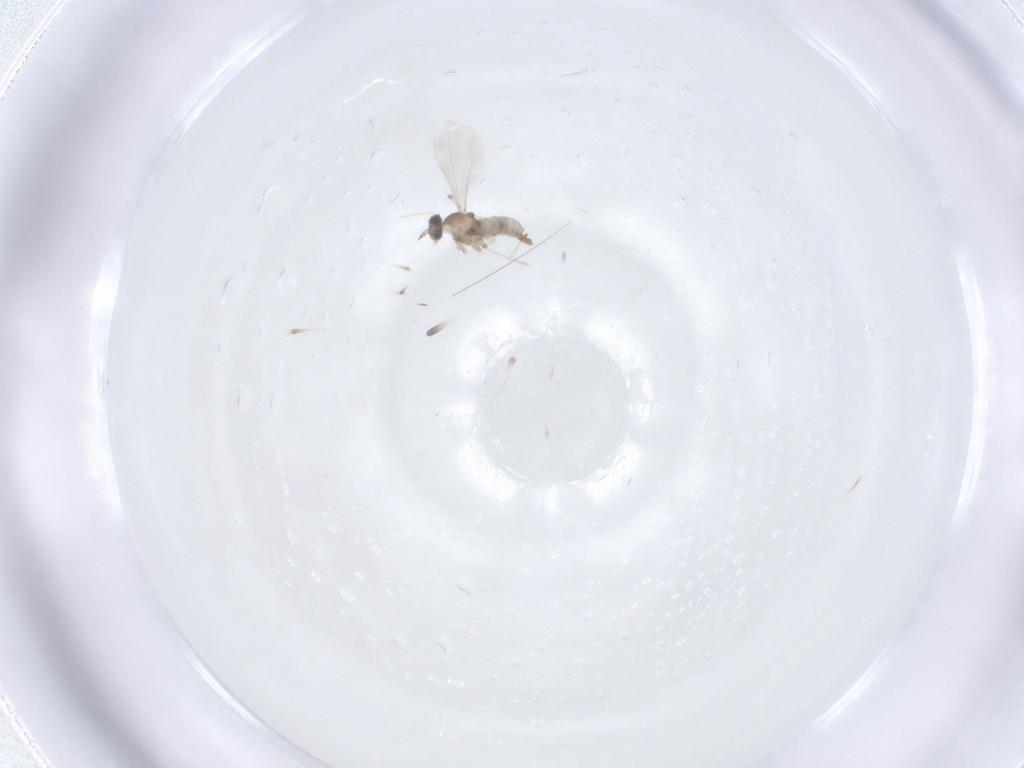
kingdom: Animalia
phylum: Arthropoda
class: Insecta
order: Diptera
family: Cecidomyiidae
